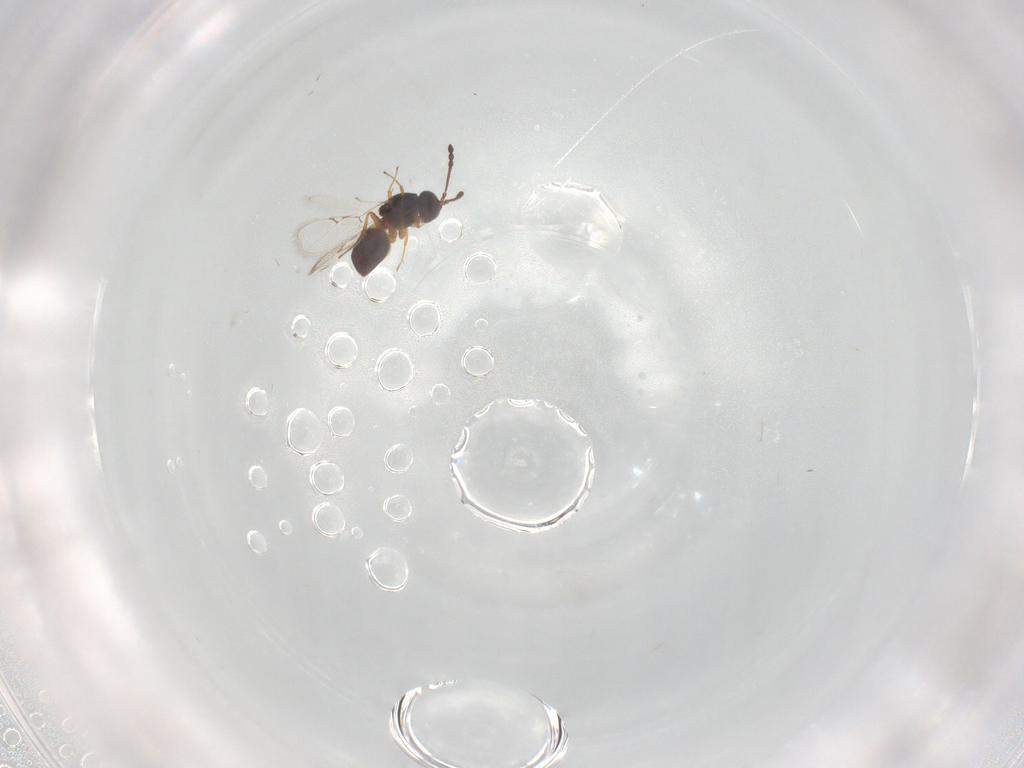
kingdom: Animalia
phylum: Arthropoda
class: Insecta
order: Hymenoptera
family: Figitidae
